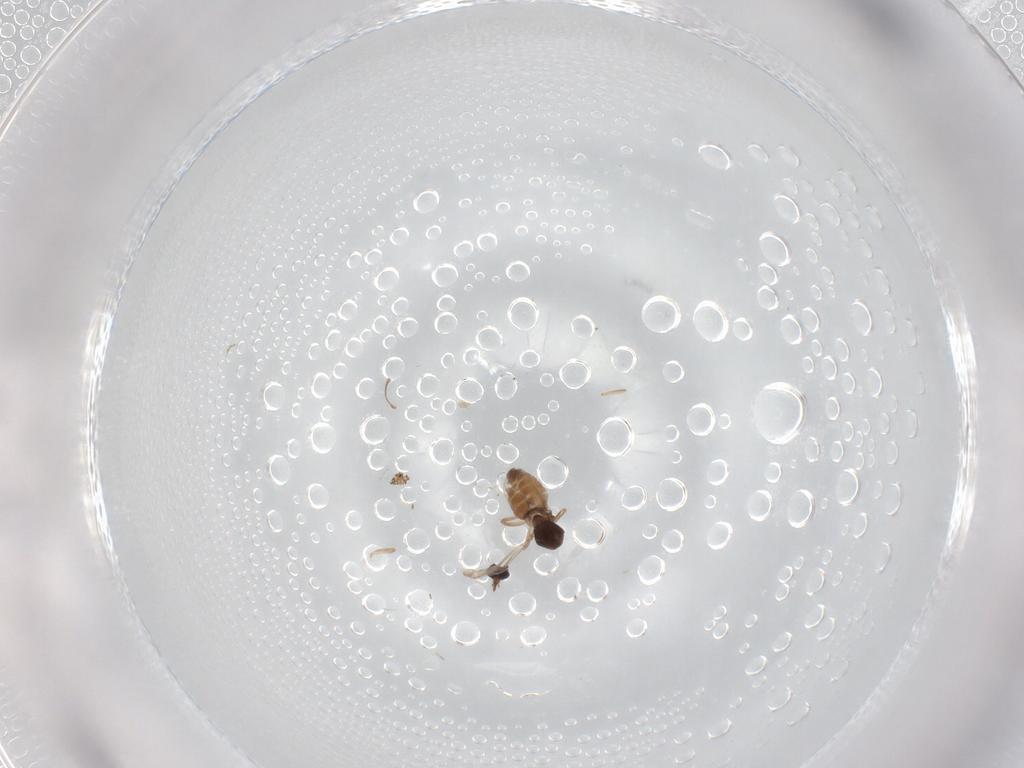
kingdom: Animalia
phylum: Arthropoda
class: Insecta
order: Diptera
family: Ceratopogonidae
